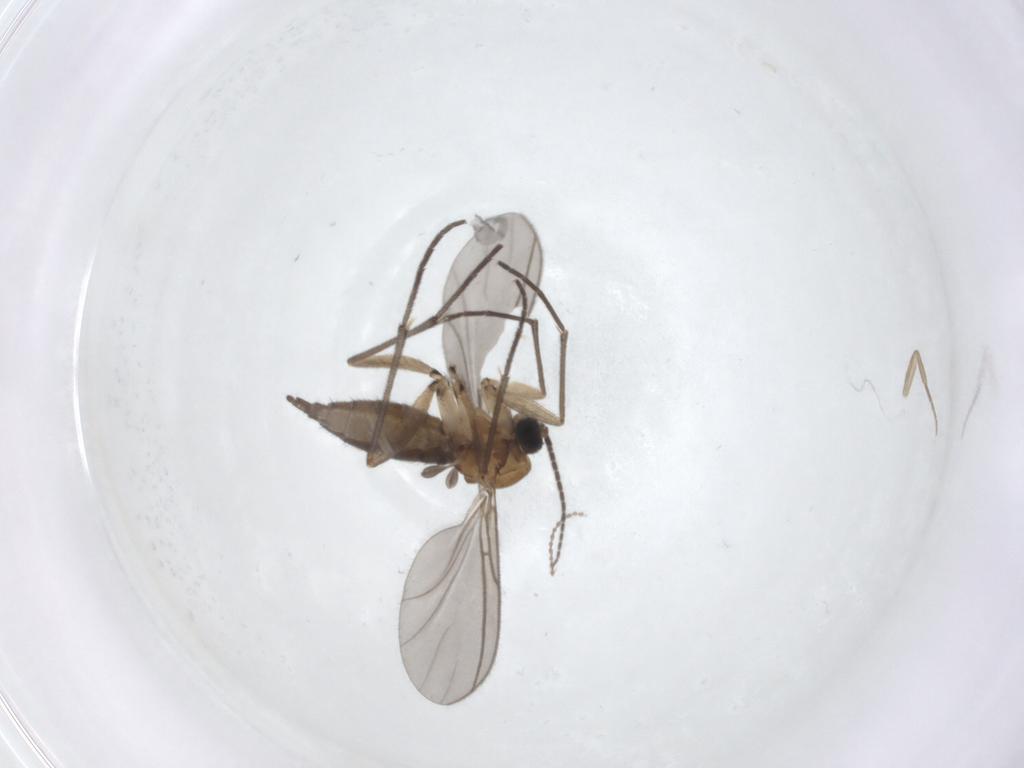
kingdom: Animalia
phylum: Arthropoda
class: Insecta
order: Diptera
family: Sciaridae
